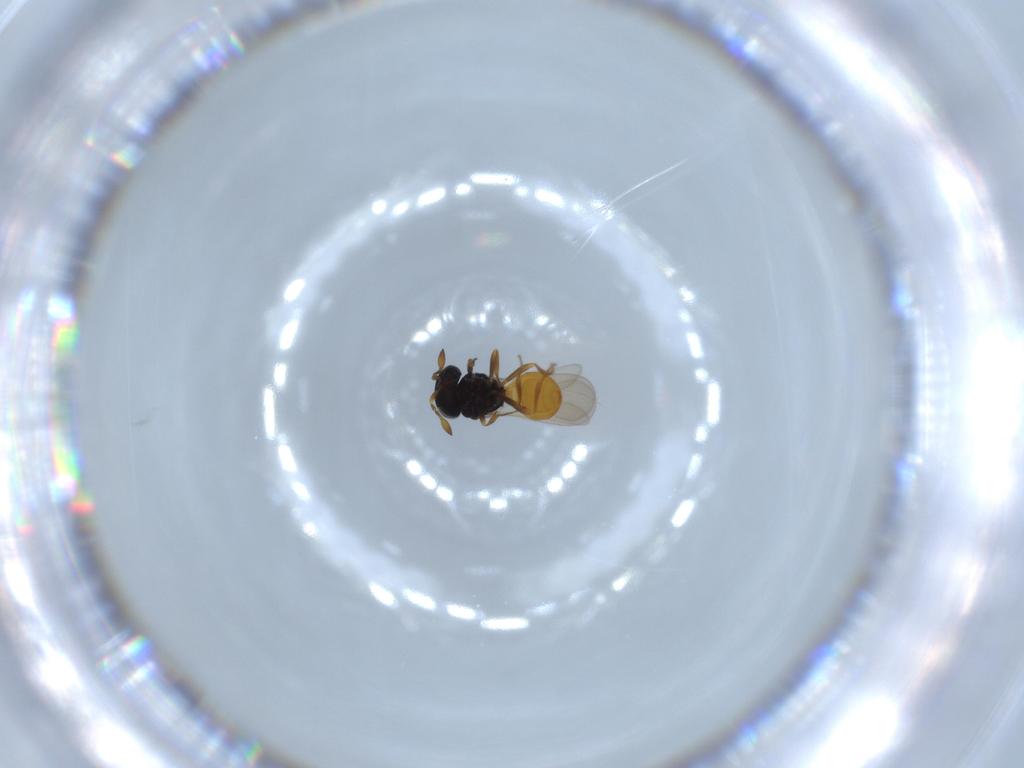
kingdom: Animalia
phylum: Arthropoda
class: Insecta
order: Hymenoptera
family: Scelionidae
